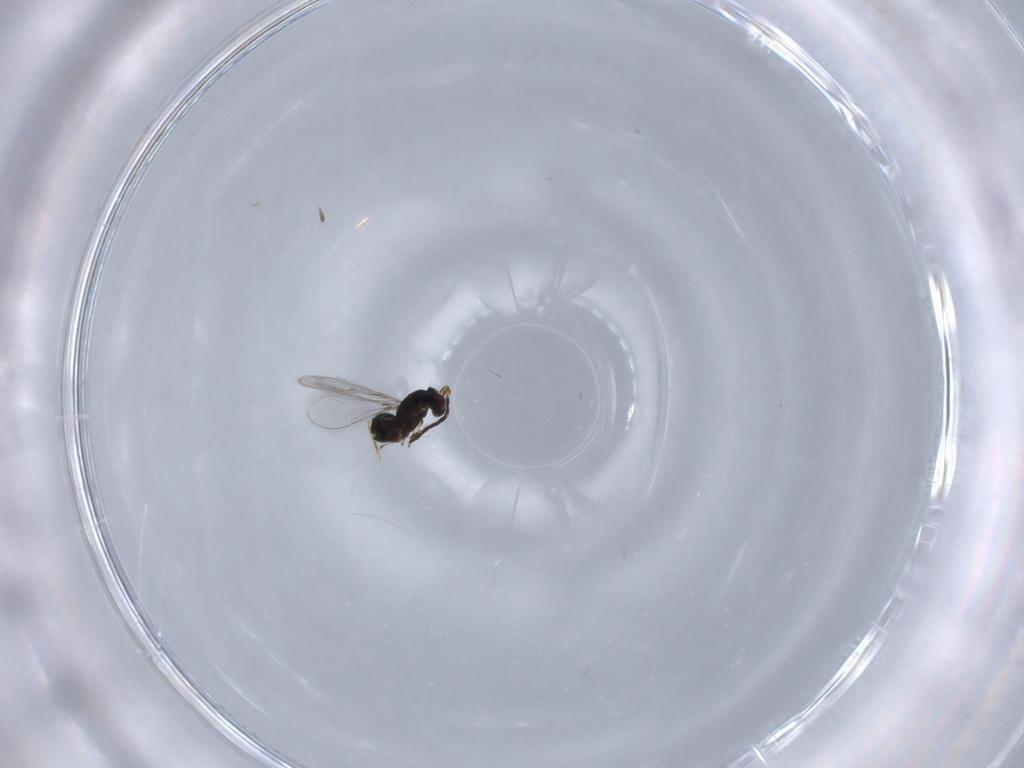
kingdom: Animalia
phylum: Arthropoda
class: Insecta
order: Hymenoptera
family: Mymaridae
